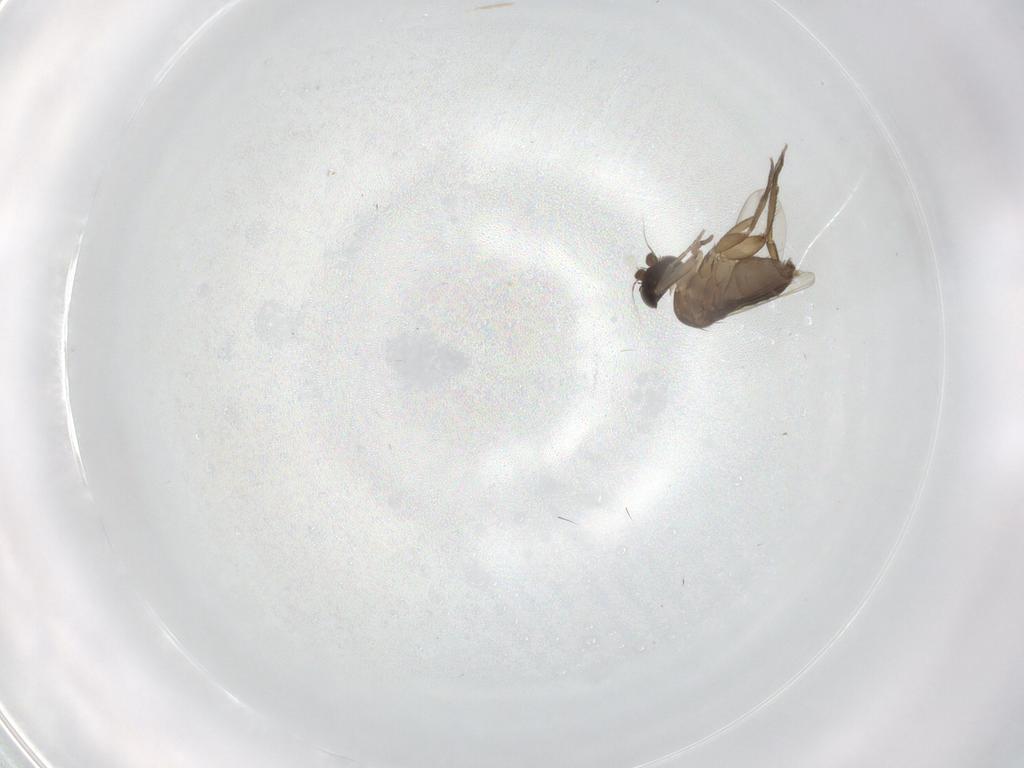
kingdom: Animalia
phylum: Arthropoda
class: Insecta
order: Diptera
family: Phoridae
